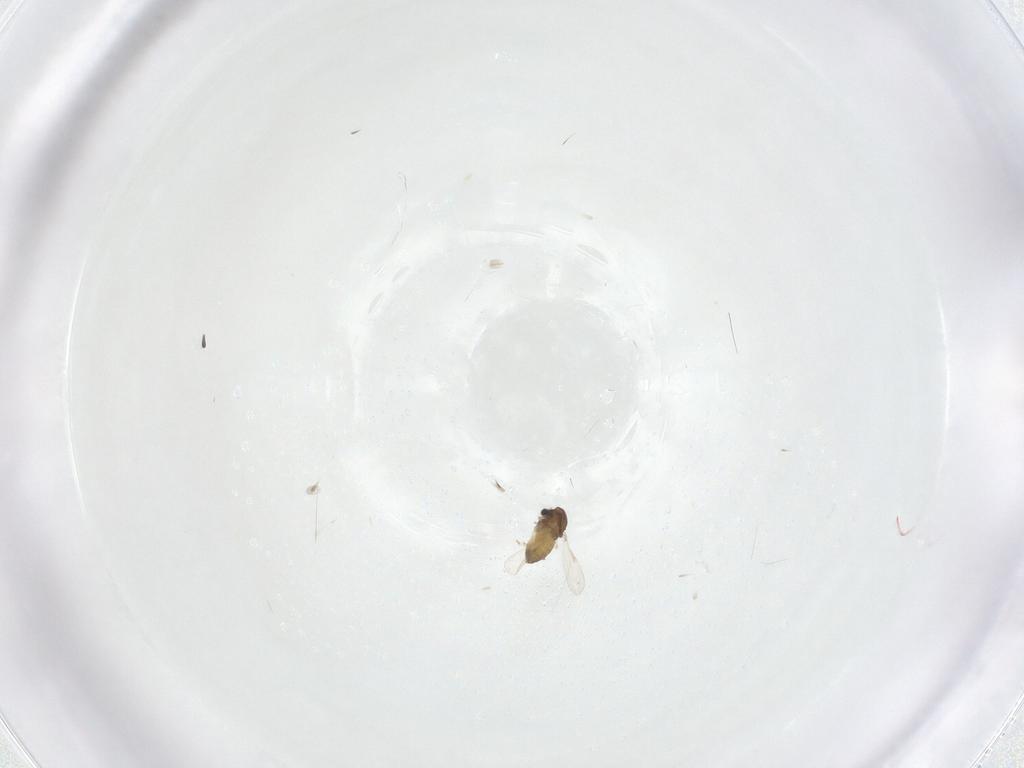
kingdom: Animalia
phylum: Arthropoda
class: Insecta
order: Diptera
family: Chironomidae
